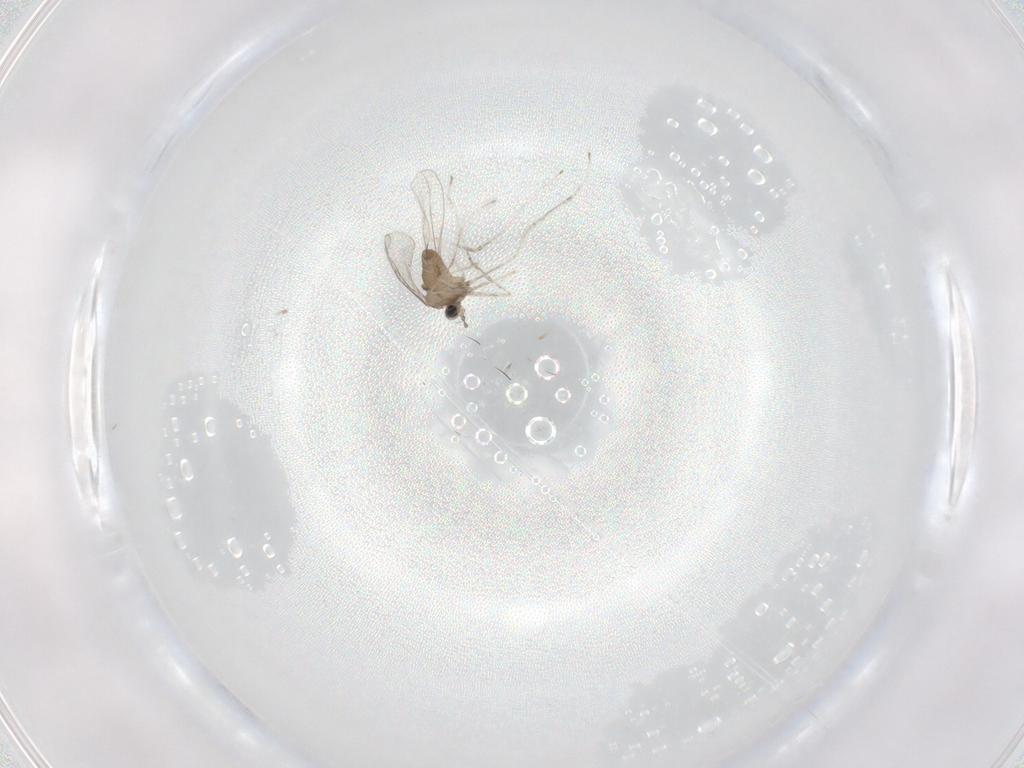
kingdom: Animalia
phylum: Arthropoda
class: Insecta
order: Diptera
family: Cecidomyiidae
